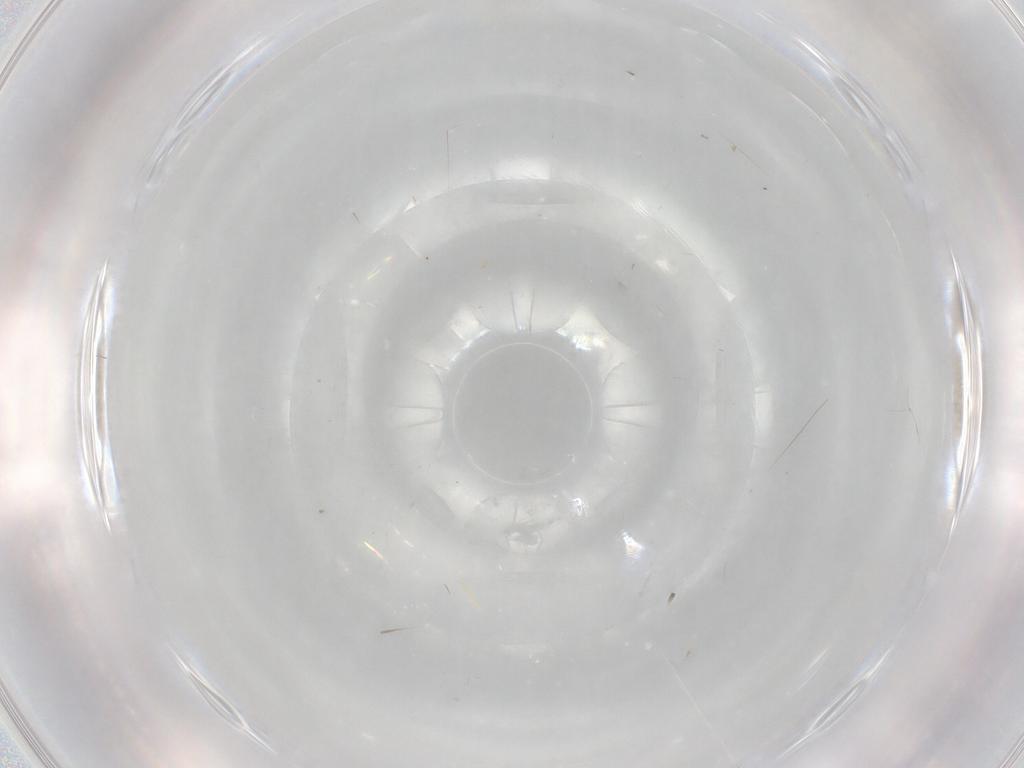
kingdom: Animalia
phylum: Arthropoda
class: Insecta
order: Diptera
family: Cecidomyiidae
